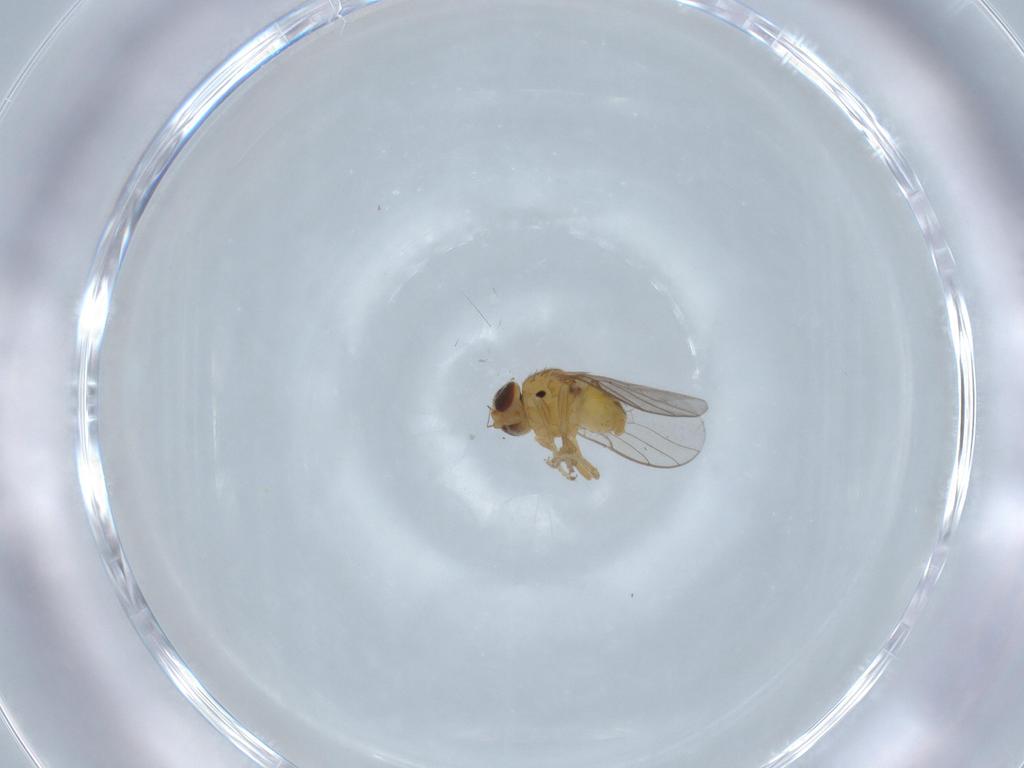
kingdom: Animalia
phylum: Arthropoda
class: Insecta
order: Diptera
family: Chloropidae
